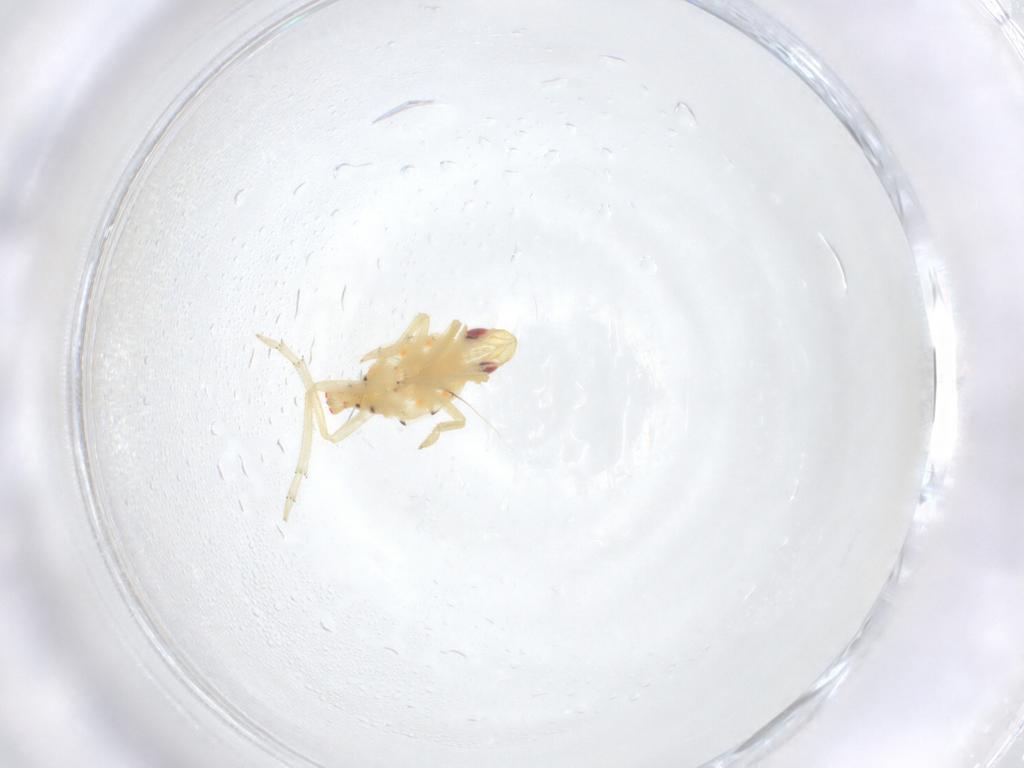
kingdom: Animalia
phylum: Arthropoda
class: Insecta
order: Hemiptera
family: Tropiduchidae
